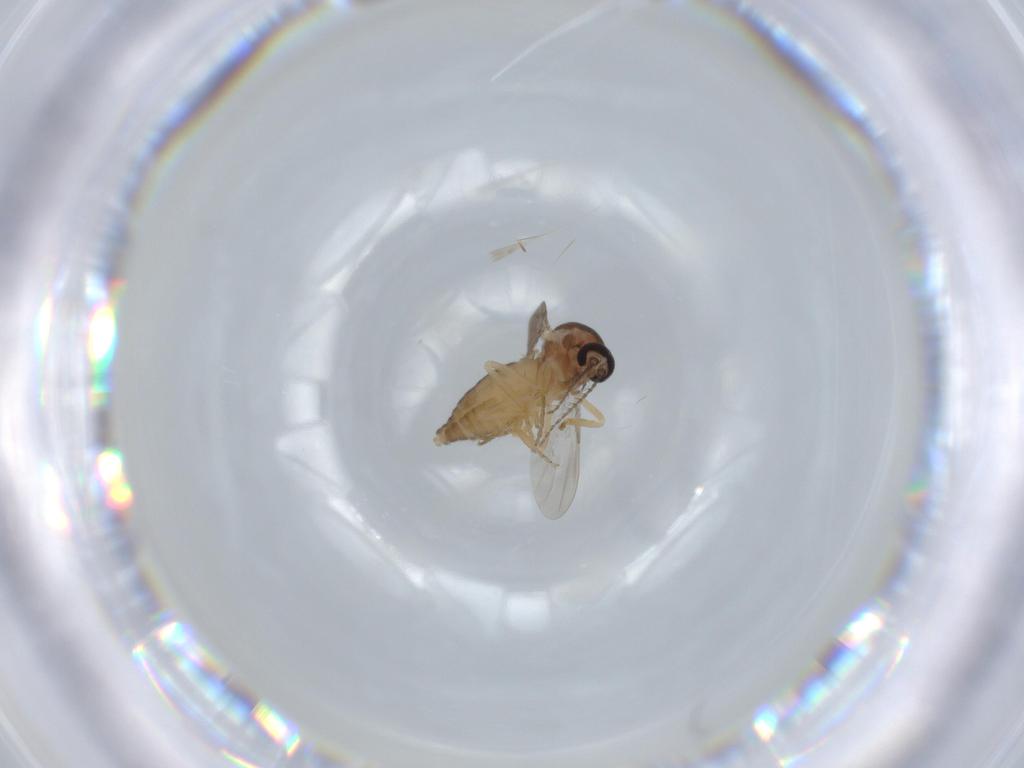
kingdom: Animalia
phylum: Arthropoda
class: Insecta
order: Diptera
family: Ceratopogonidae
